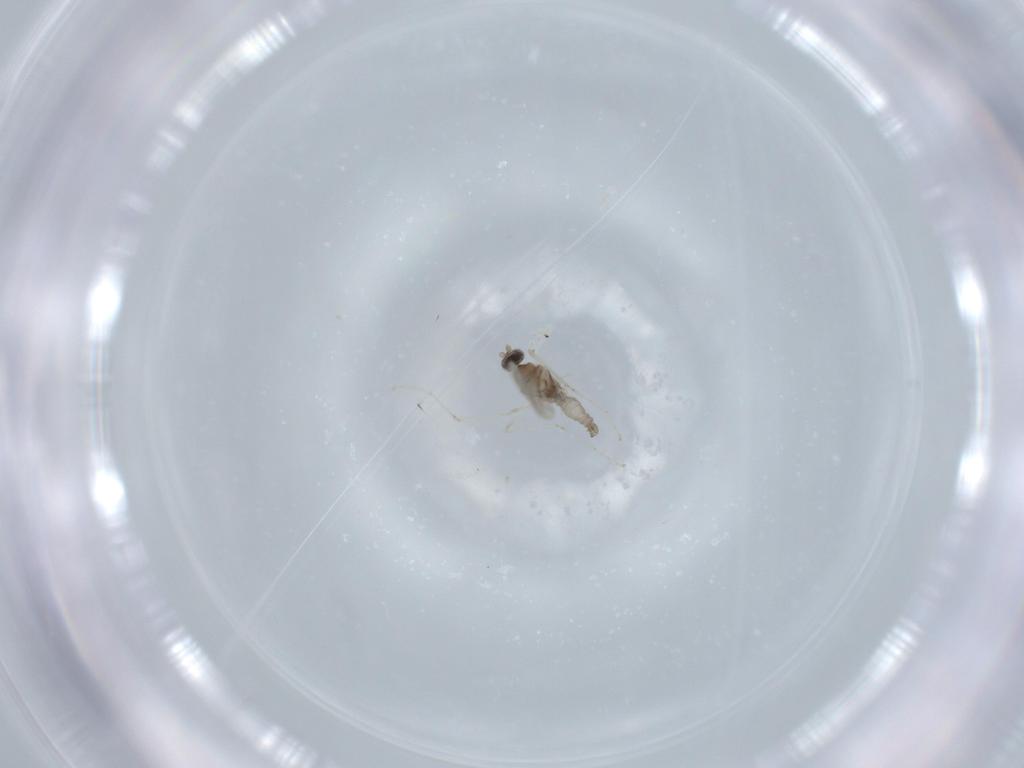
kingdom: Animalia
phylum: Arthropoda
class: Insecta
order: Diptera
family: Cecidomyiidae
